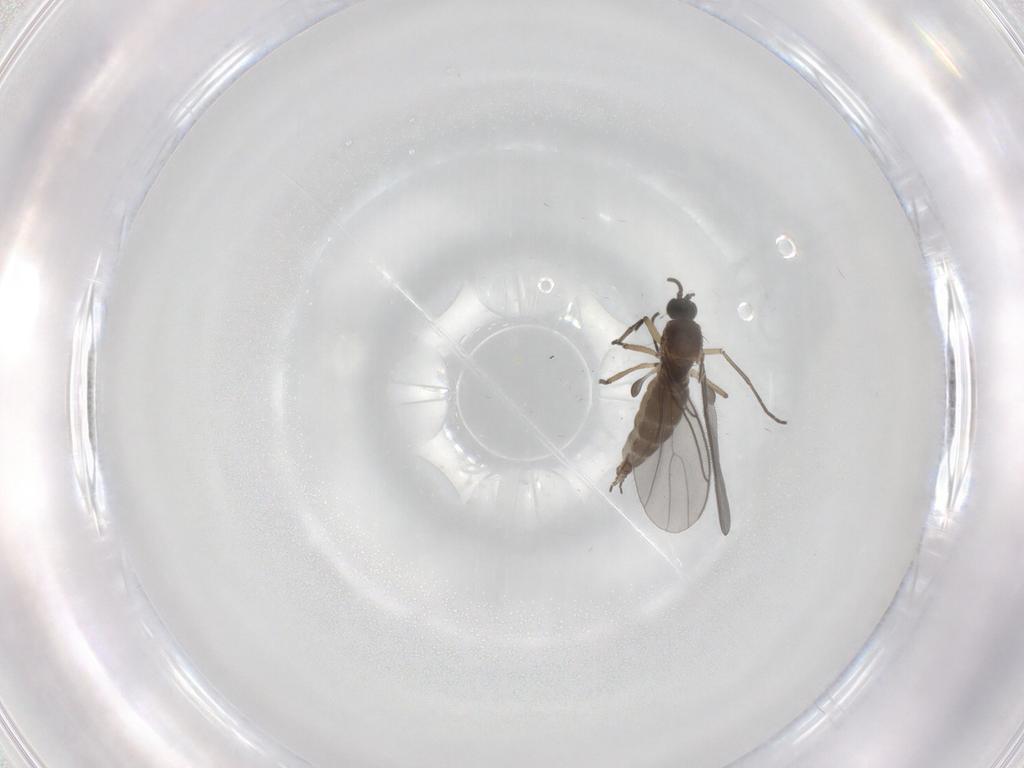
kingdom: Animalia
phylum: Arthropoda
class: Insecta
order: Diptera
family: Sciaridae
